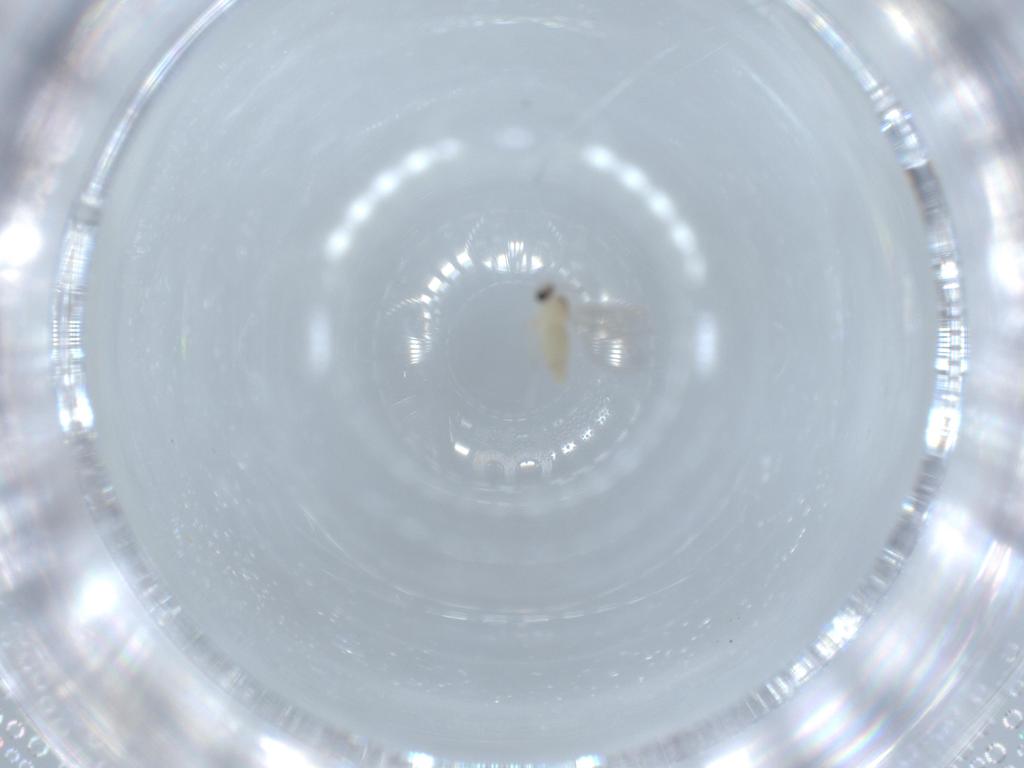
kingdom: Animalia
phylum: Arthropoda
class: Insecta
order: Diptera
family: Cecidomyiidae
